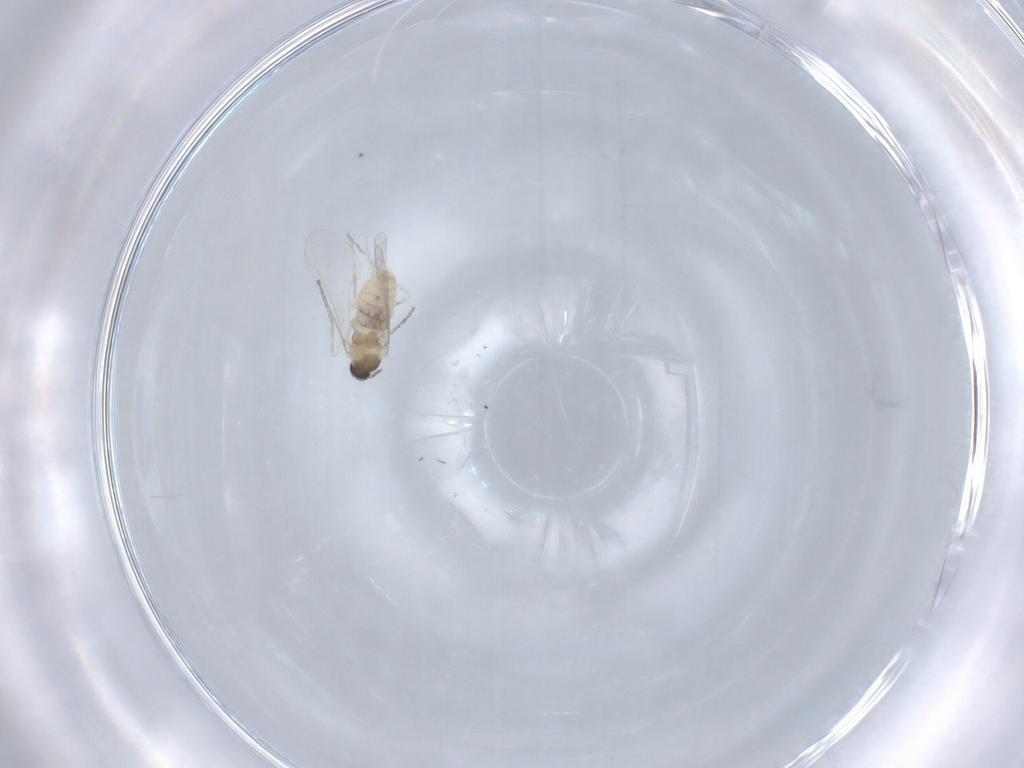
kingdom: Animalia
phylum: Arthropoda
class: Insecta
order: Diptera
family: Cecidomyiidae
